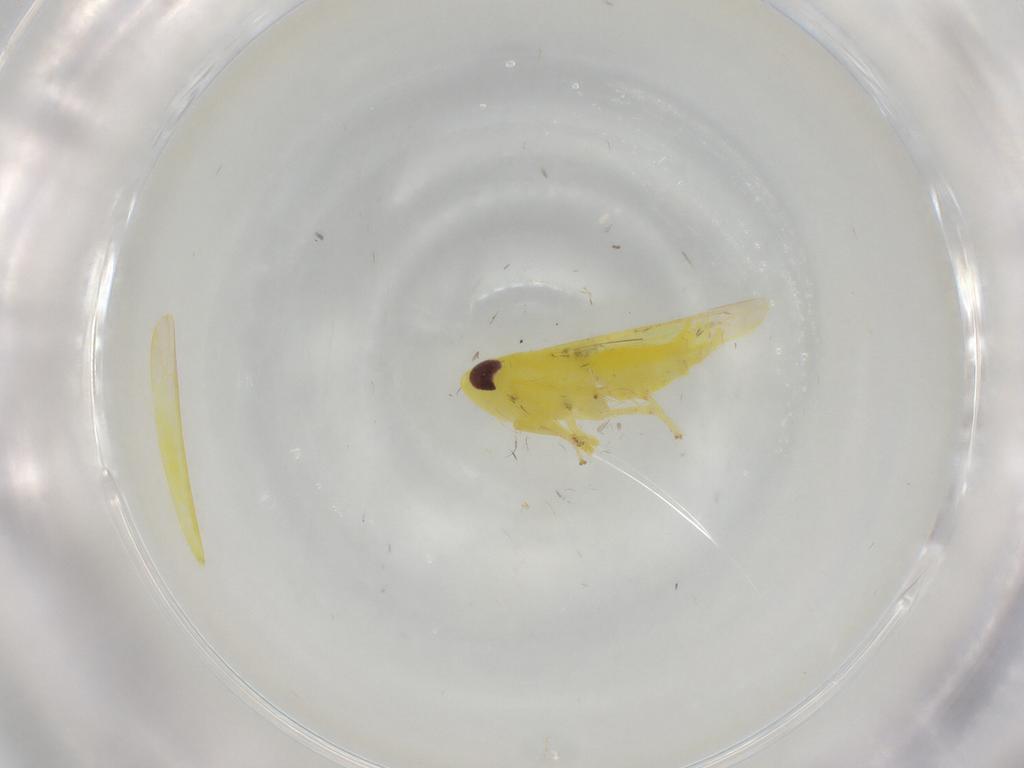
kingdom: Animalia
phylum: Arthropoda
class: Insecta
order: Hemiptera
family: Cicadellidae
